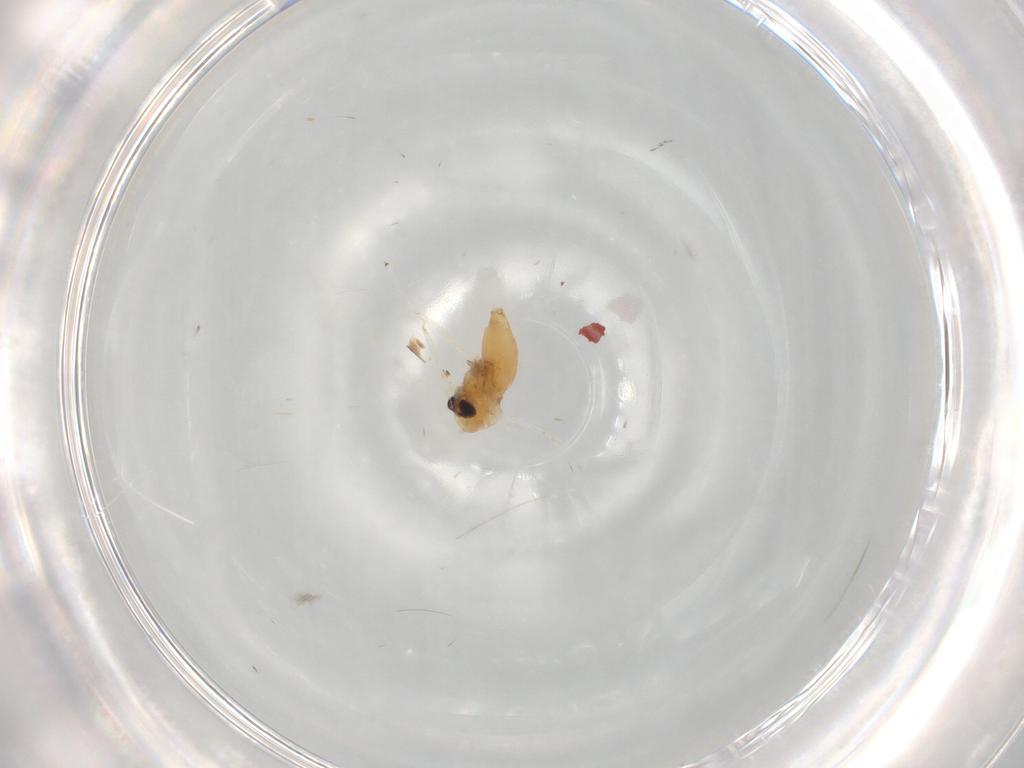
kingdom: Animalia
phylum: Arthropoda
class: Insecta
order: Diptera
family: Chironomidae
